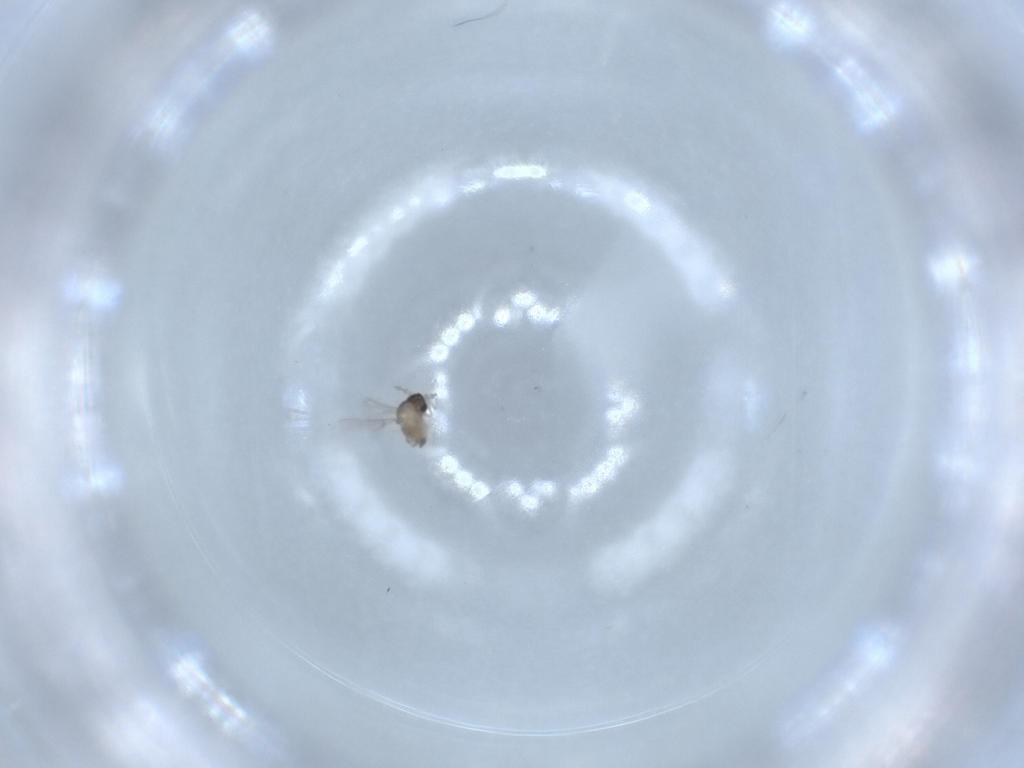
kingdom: Animalia
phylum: Arthropoda
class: Insecta
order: Diptera
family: Cecidomyiidae
